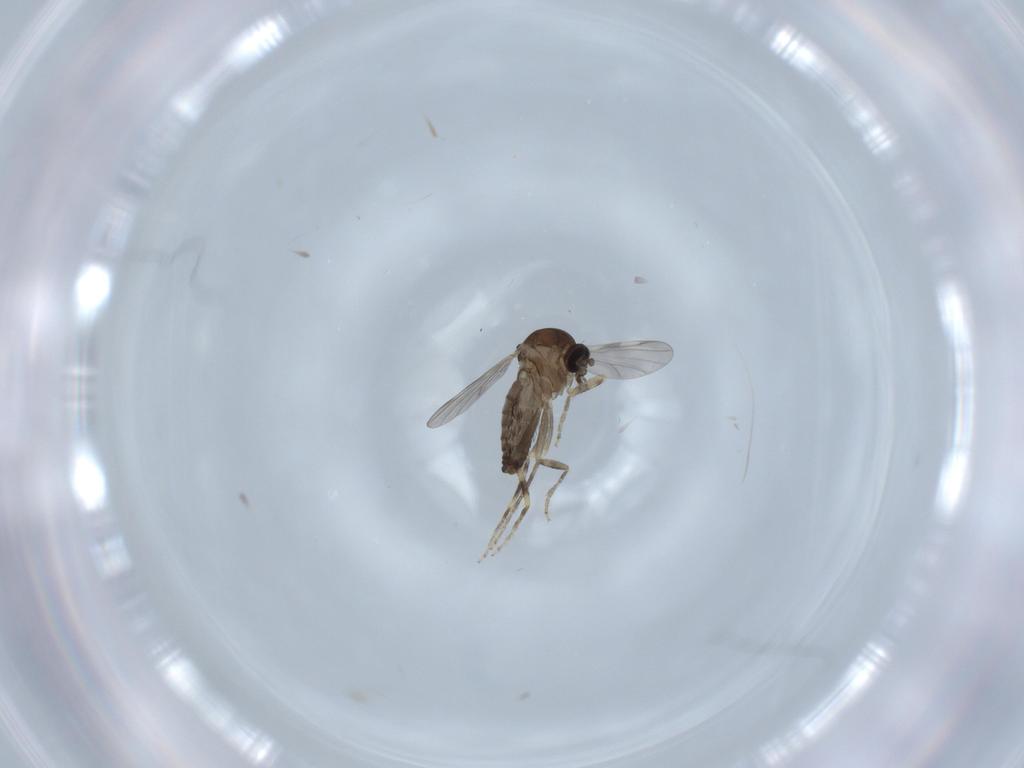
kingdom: Animalia
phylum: Arthropoda
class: Insecta
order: Diptera
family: Ceratopogonidae
